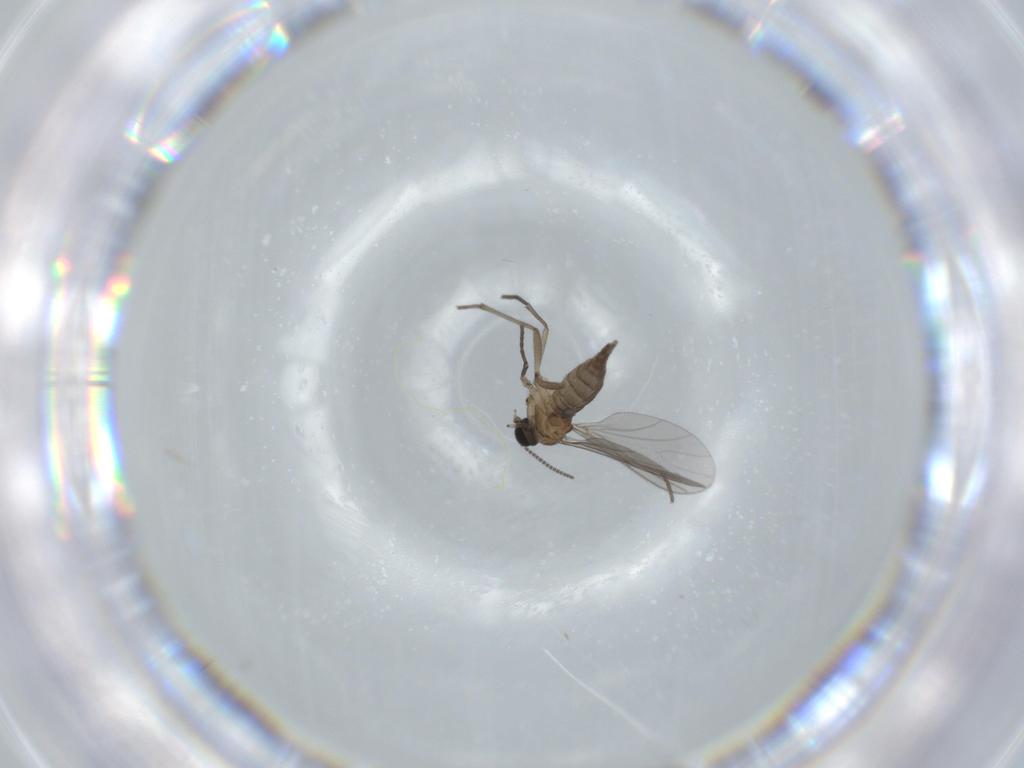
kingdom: Animalia
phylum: Arthropoda
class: Insecta
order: Diptera
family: Sciaridae
